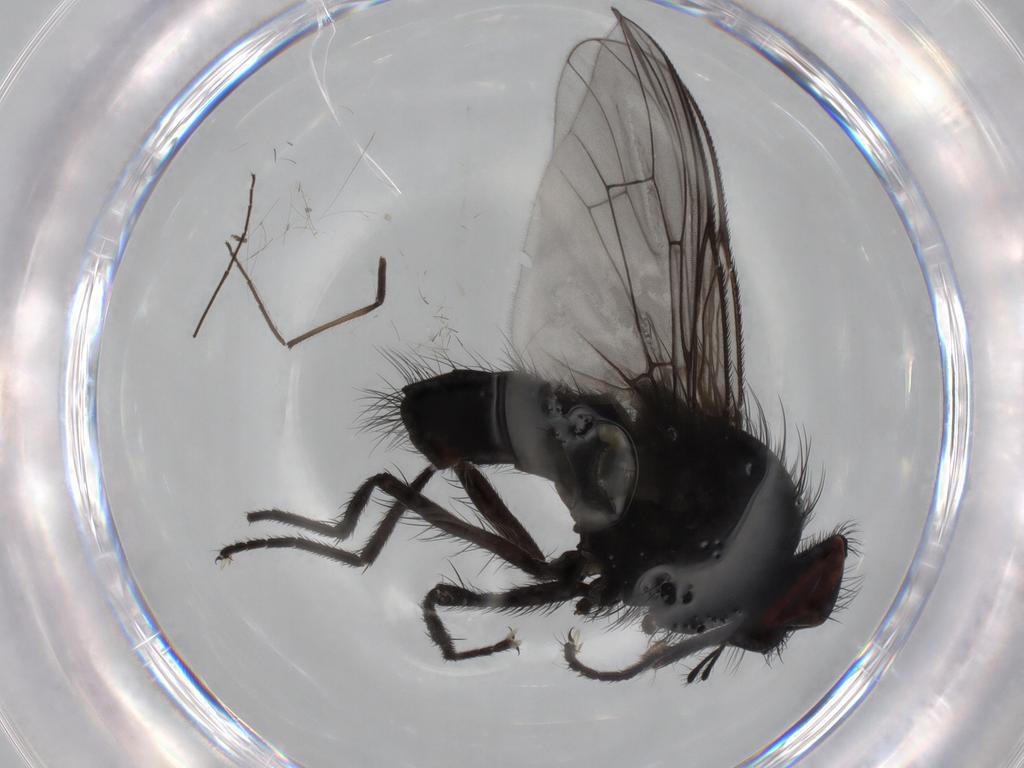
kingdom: Animalia
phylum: Arthropoda
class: Insecta
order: Diptera
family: Muscidae
